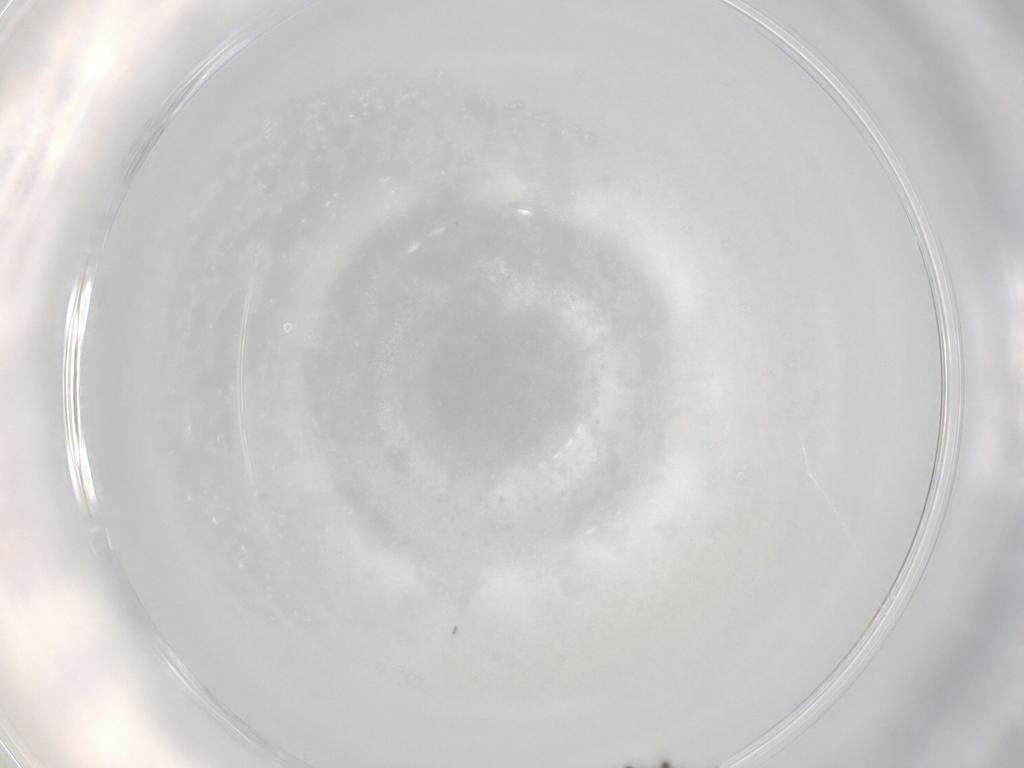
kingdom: Animalia
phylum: Arthropoda
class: Insecta
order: Diptera
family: Phoridae
